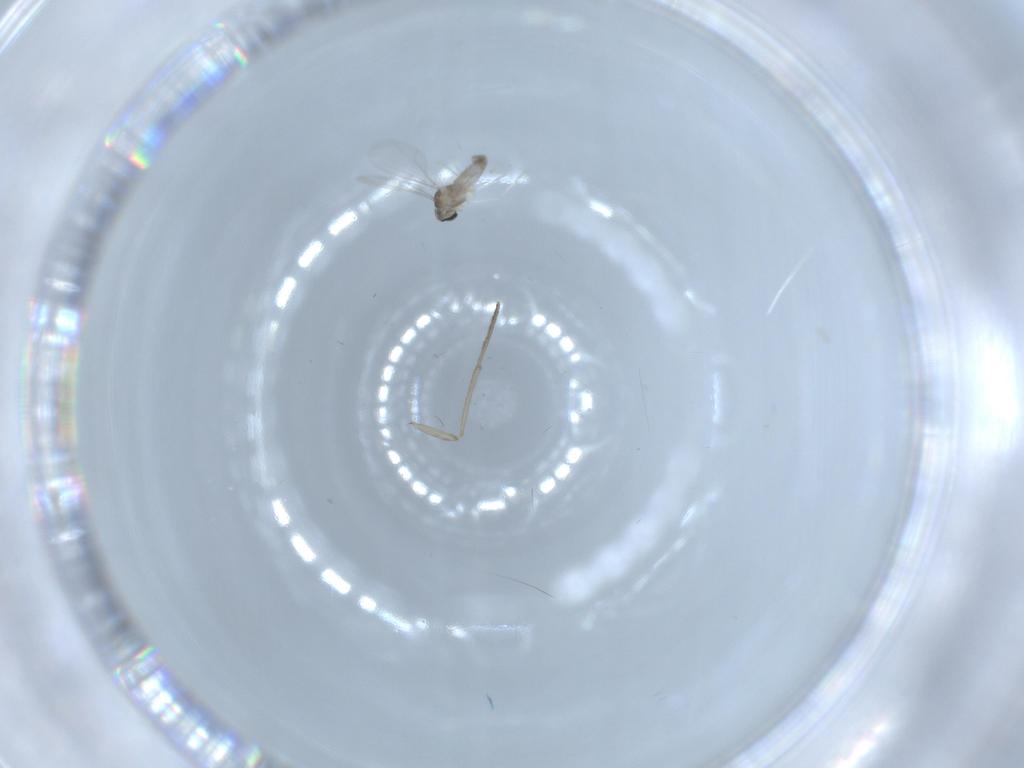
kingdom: Animalia
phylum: Arthropoda
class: Insecta
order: Diptera
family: Cecidomyiidae
